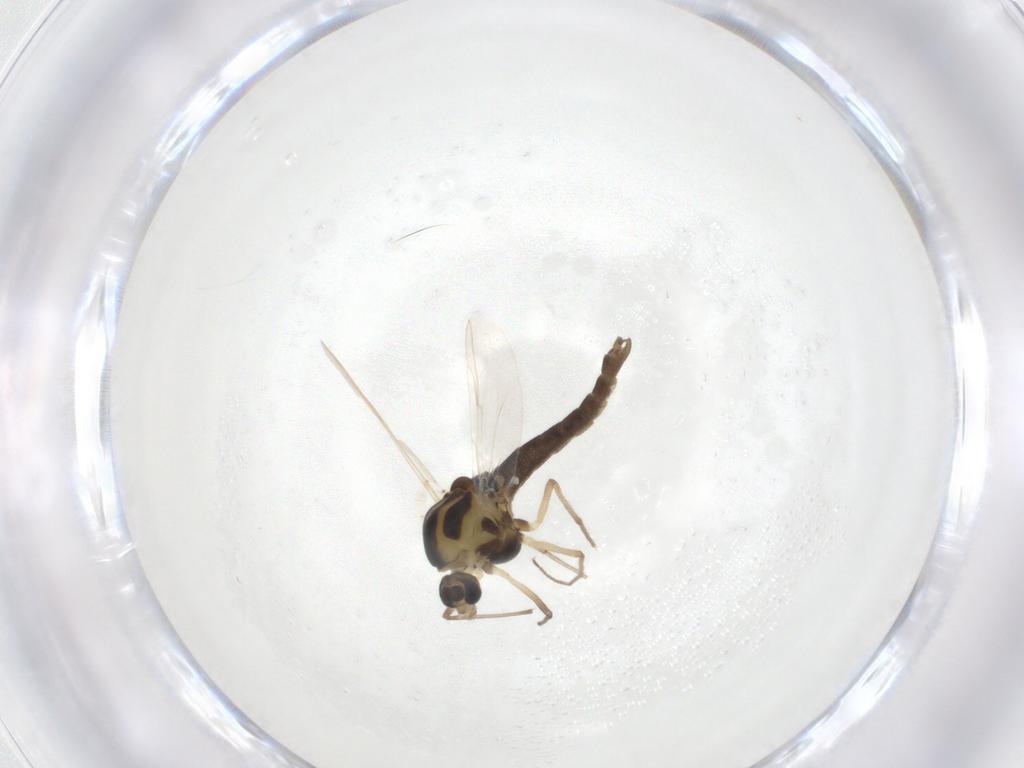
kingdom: Animalia
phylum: Arthropoda
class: Insecta
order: Diptera
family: Chironomidae
